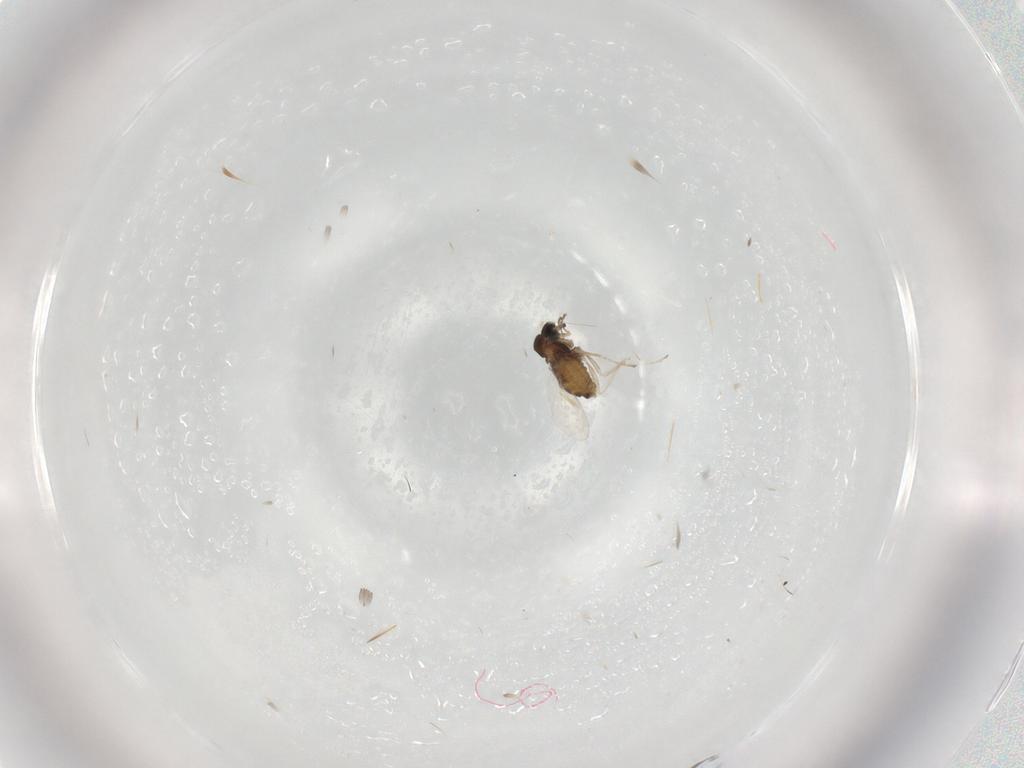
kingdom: Animalia
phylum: Arthropoda
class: Insecta
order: Diptera
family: Cecidomyiidae
